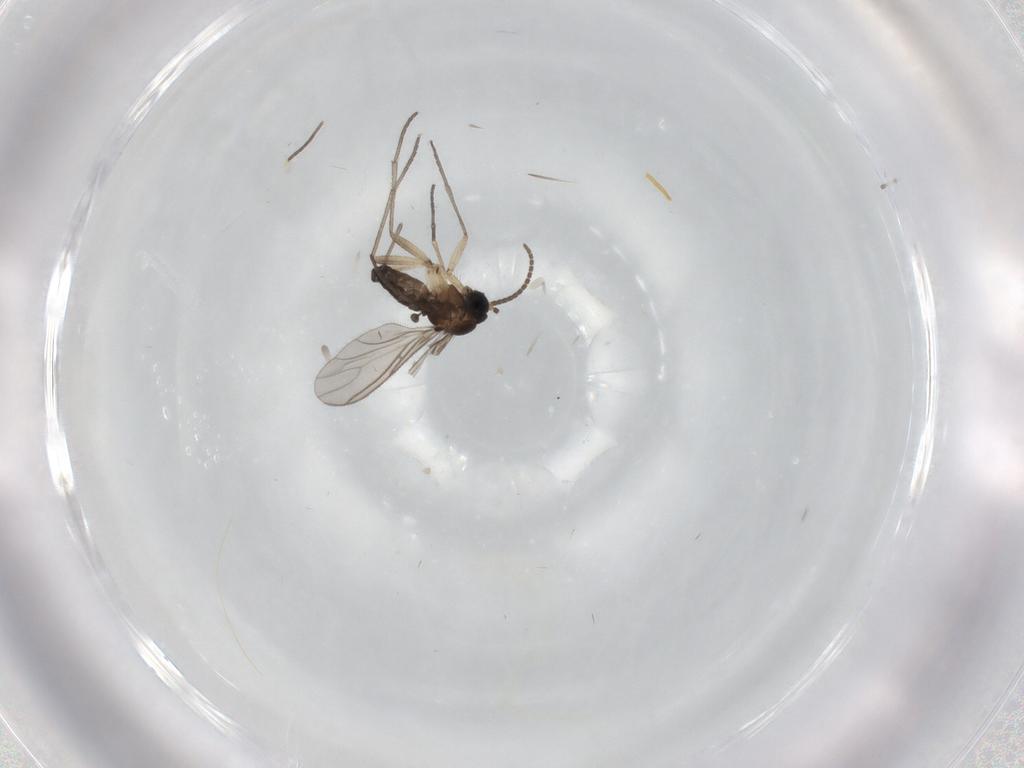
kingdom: Animalia
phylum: Arthropoda
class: Insecta
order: Diptera
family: Sciaridae
